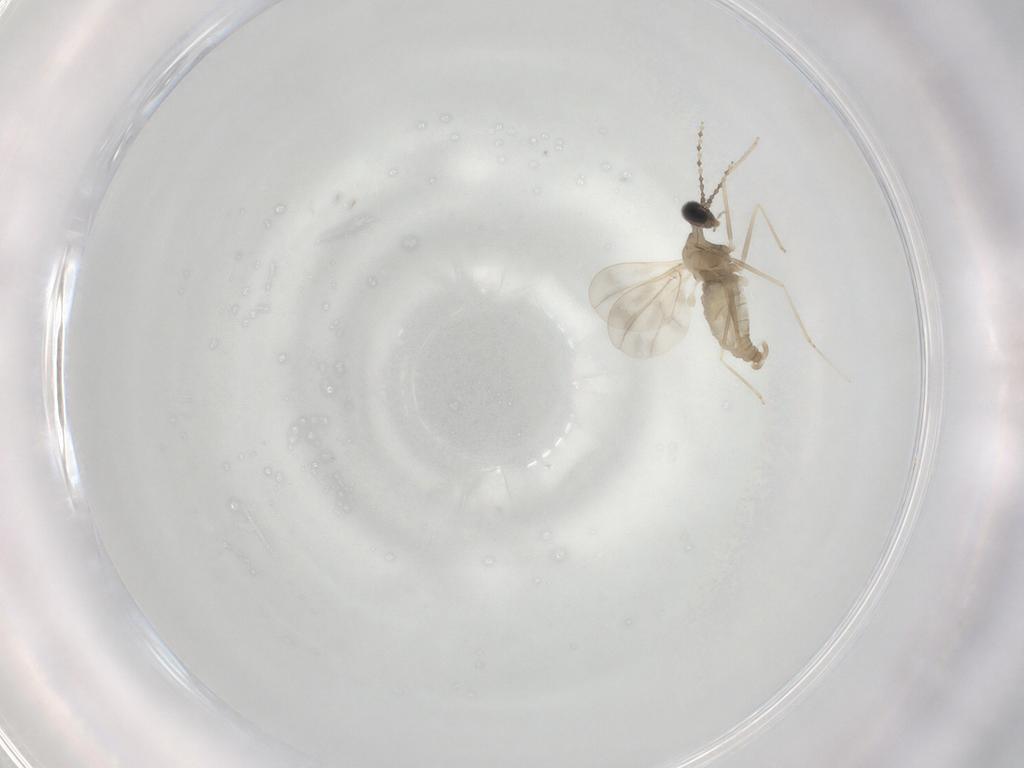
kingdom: Animalia
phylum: Arthropoda
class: Insecta
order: Diptera
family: Cecidomyiidae
